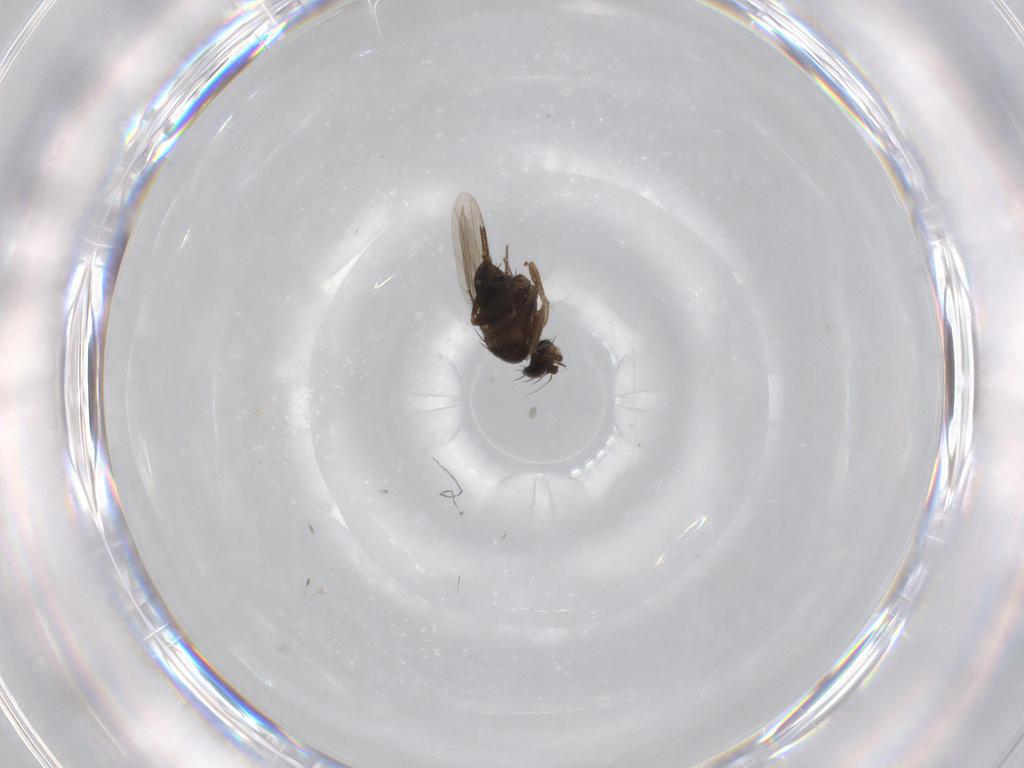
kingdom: Animalia
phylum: Arthropoda
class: Insecta
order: Diptera
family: Phoridae
